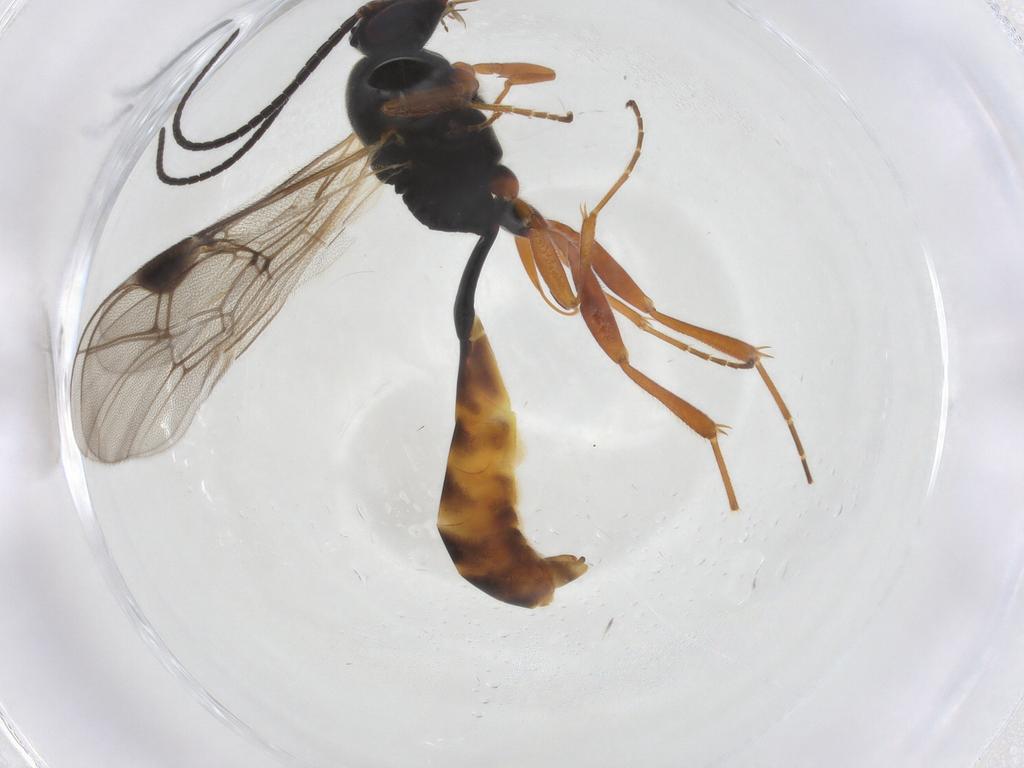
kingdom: Animalia
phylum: Arthropoda
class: Insecta
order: Hymenoptera
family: Ichneumonidae
